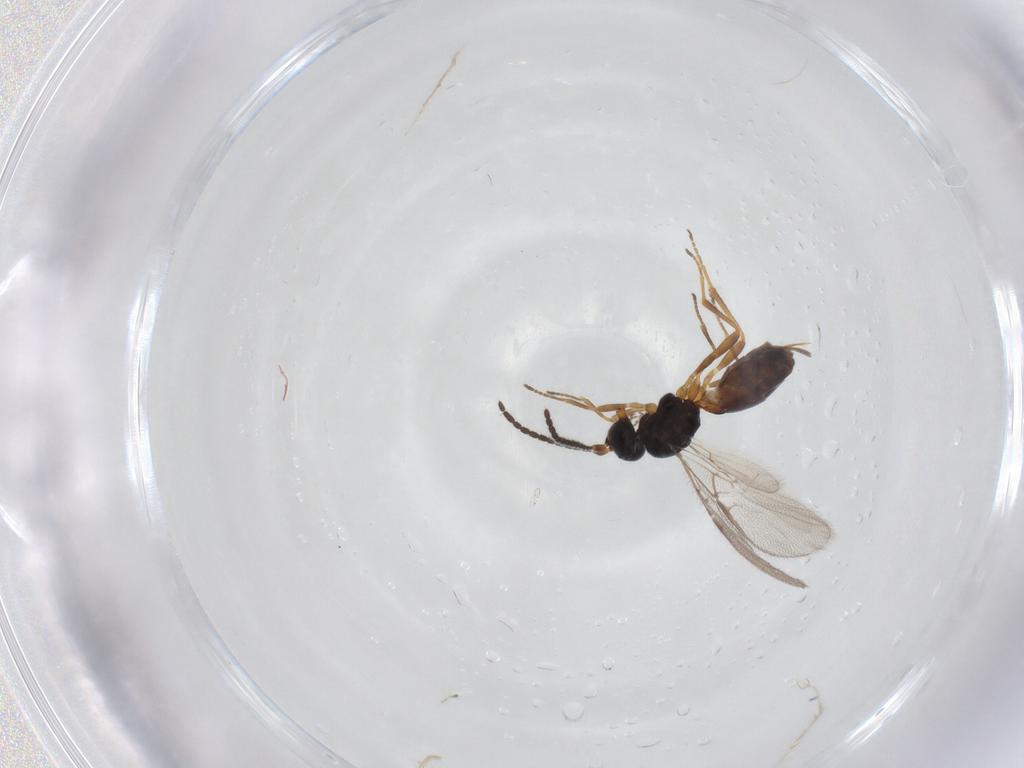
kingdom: Animalia
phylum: Arthropoda
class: Insecta
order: Hymenoptera
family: Braconidae
